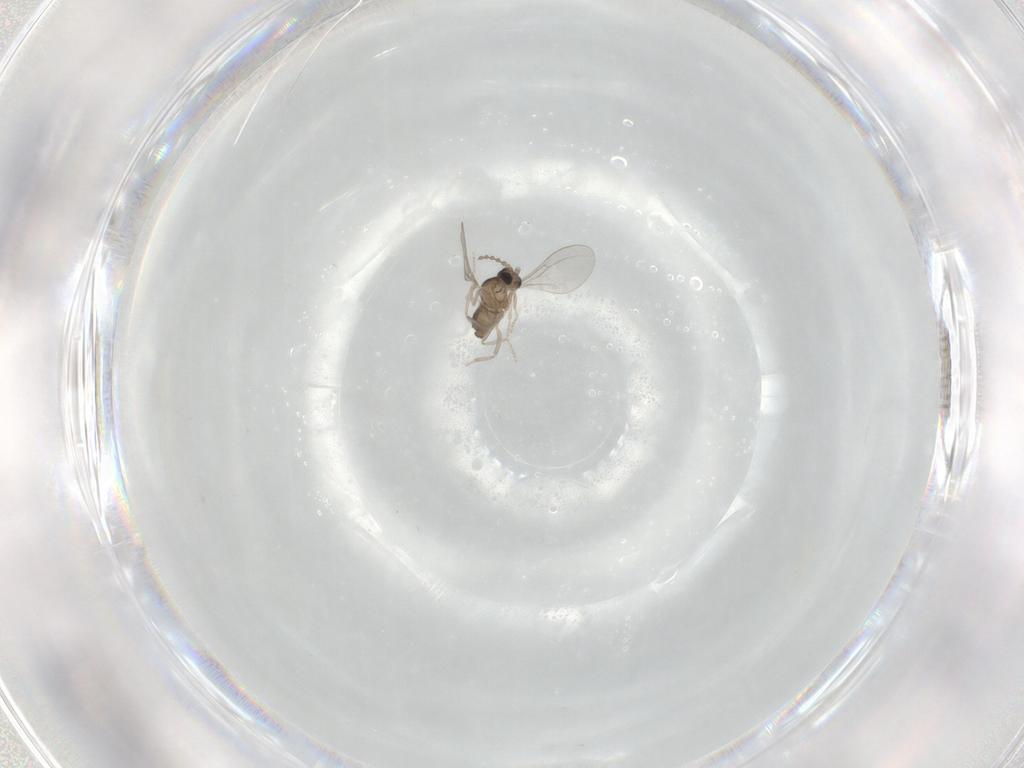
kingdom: Animalia
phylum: Arthropoda
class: Insecta
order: Diptera
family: Cecidomyiidae
